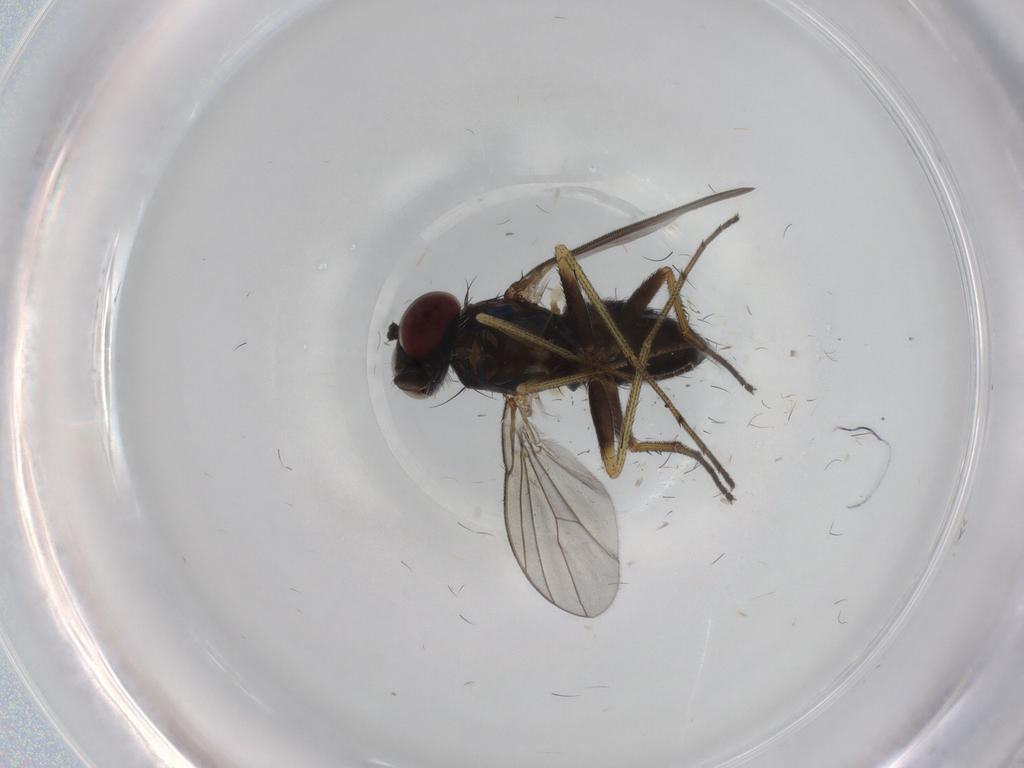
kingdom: Animalia
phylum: Arthropoda
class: Insecta
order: Diptera
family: Dolichopodidae
